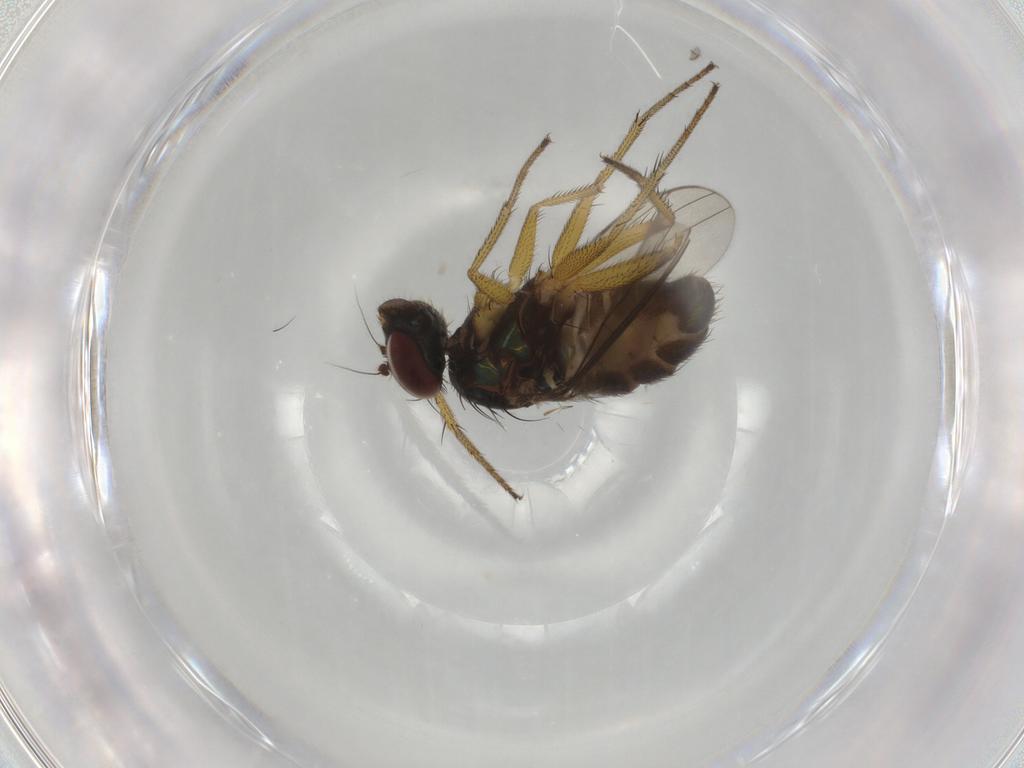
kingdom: Animalia
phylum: Arthropoda
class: Insecta
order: Diptera
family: Dolichopodidae
